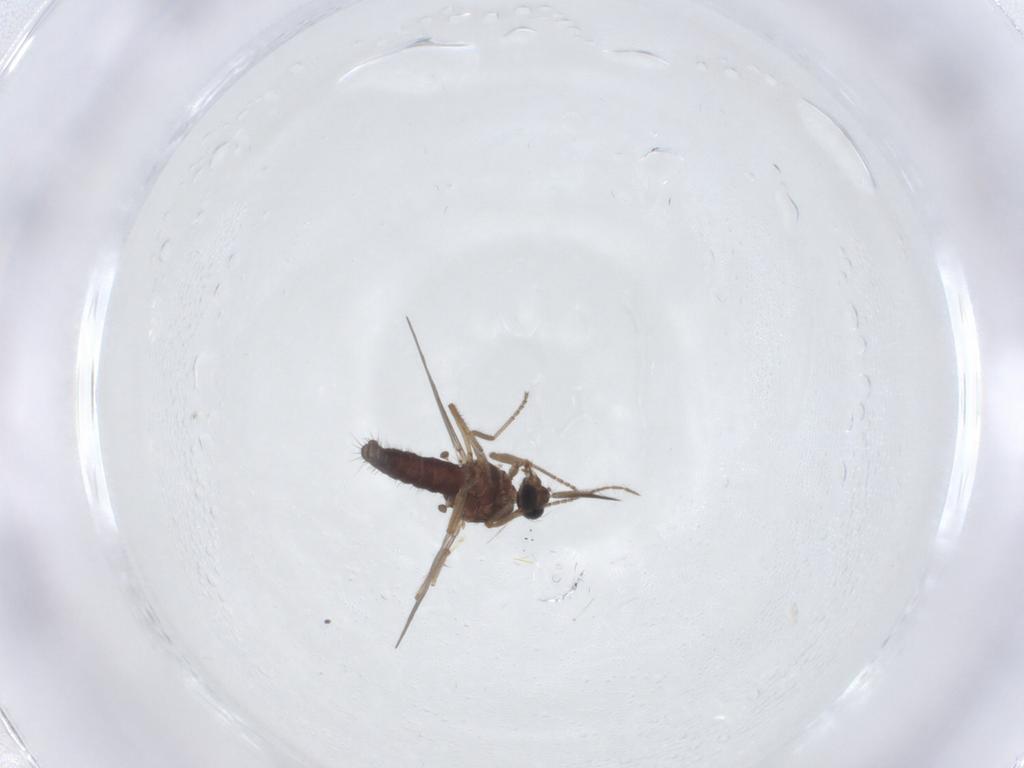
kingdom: Animalia
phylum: Arthropoda
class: Insecta
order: Diptera
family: Ceratopogonidae
